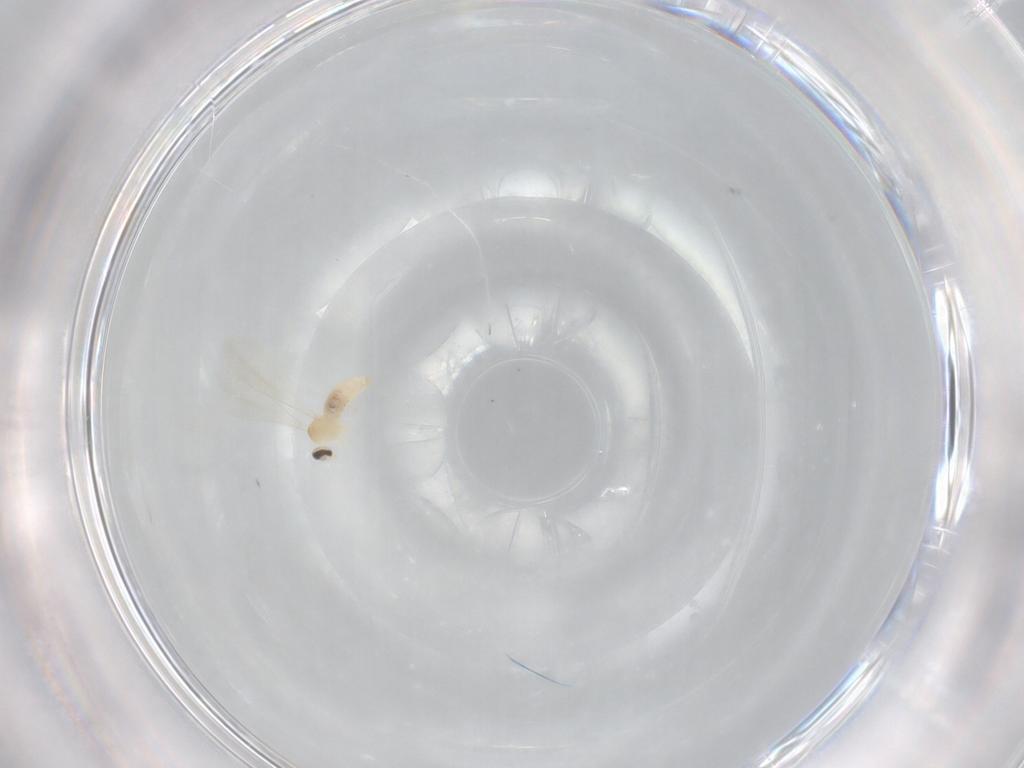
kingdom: Animalia
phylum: Arthropoda
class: Insecta
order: Diptera
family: Cecidomyiidae
